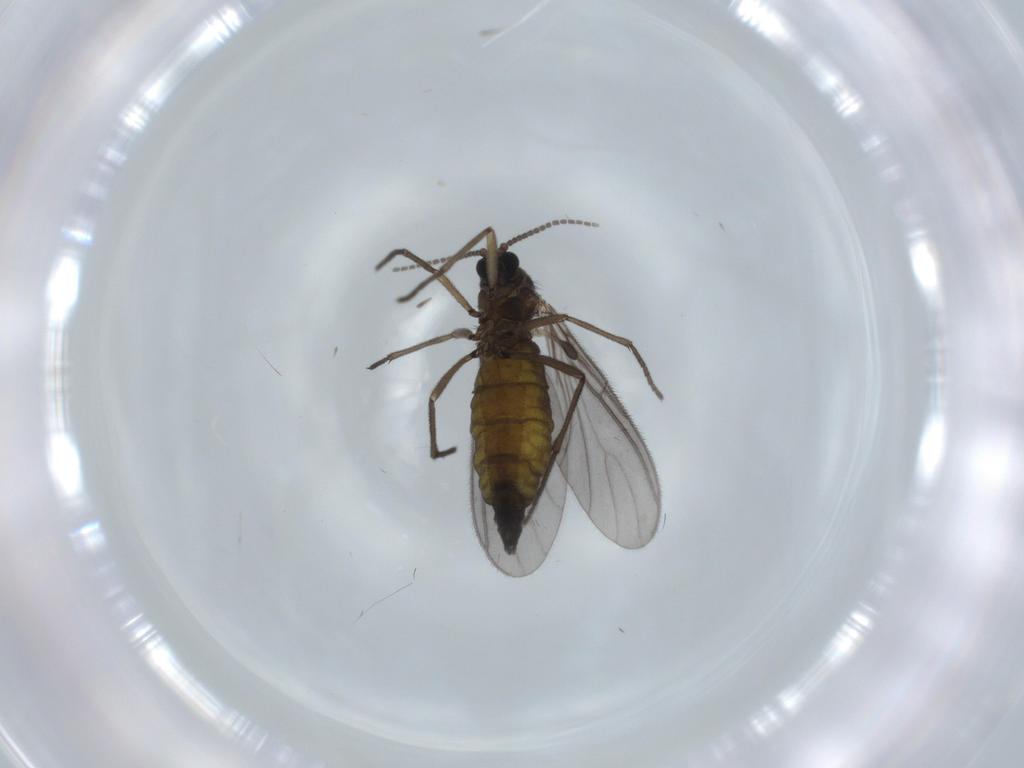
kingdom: Animalia
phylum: Arthropoda
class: Insecta
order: Diptera
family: Sciaridae
